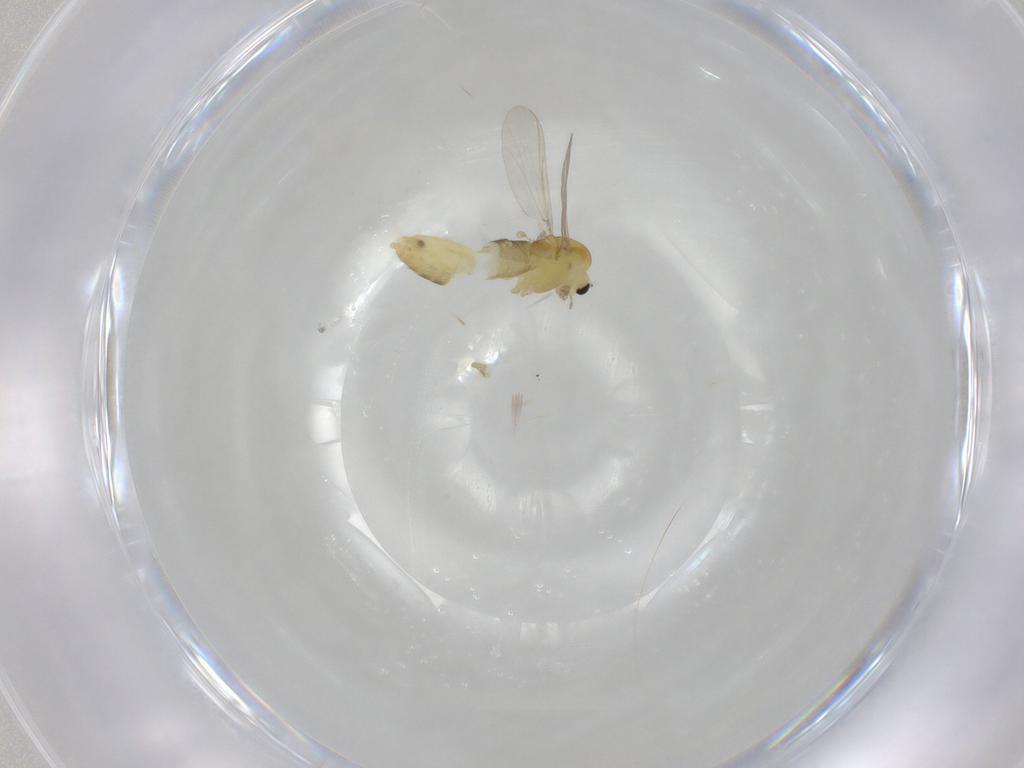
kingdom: Animalia
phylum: Arthropoda
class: Insecta
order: Diptera
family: Chironomidae
